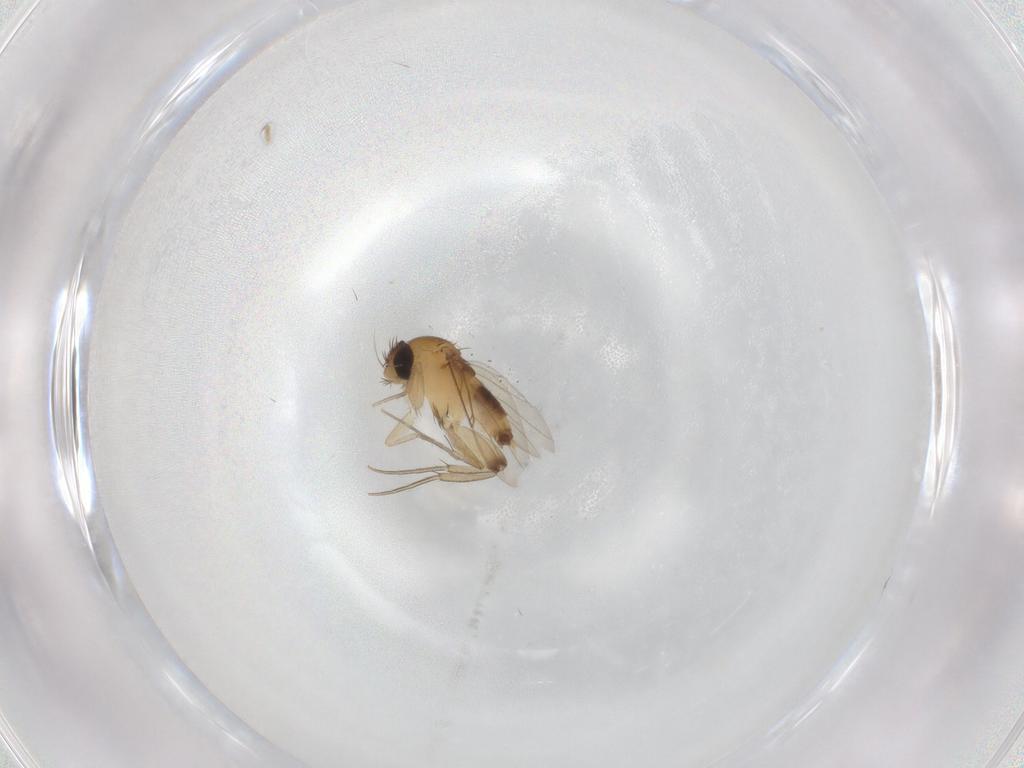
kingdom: Animalia
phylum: Arthropoda
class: Insecta
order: Diptera
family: Phoridae
